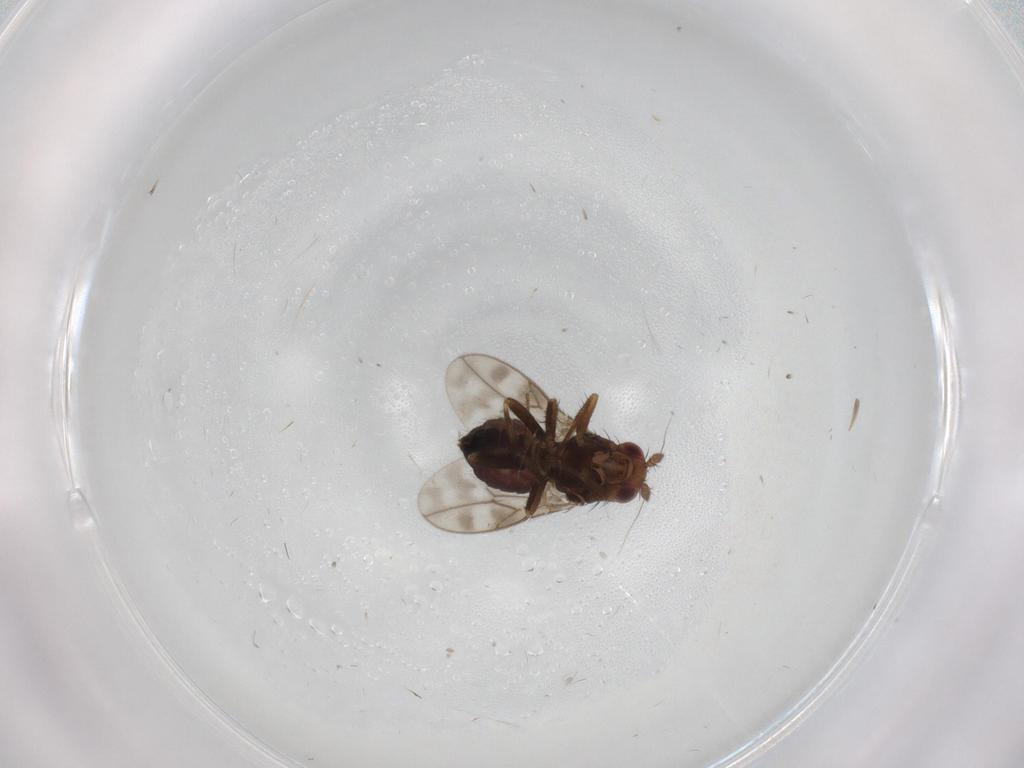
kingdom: Animalia
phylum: Arthropoda
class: Insecta
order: Diptera
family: Sphaeroceridae
